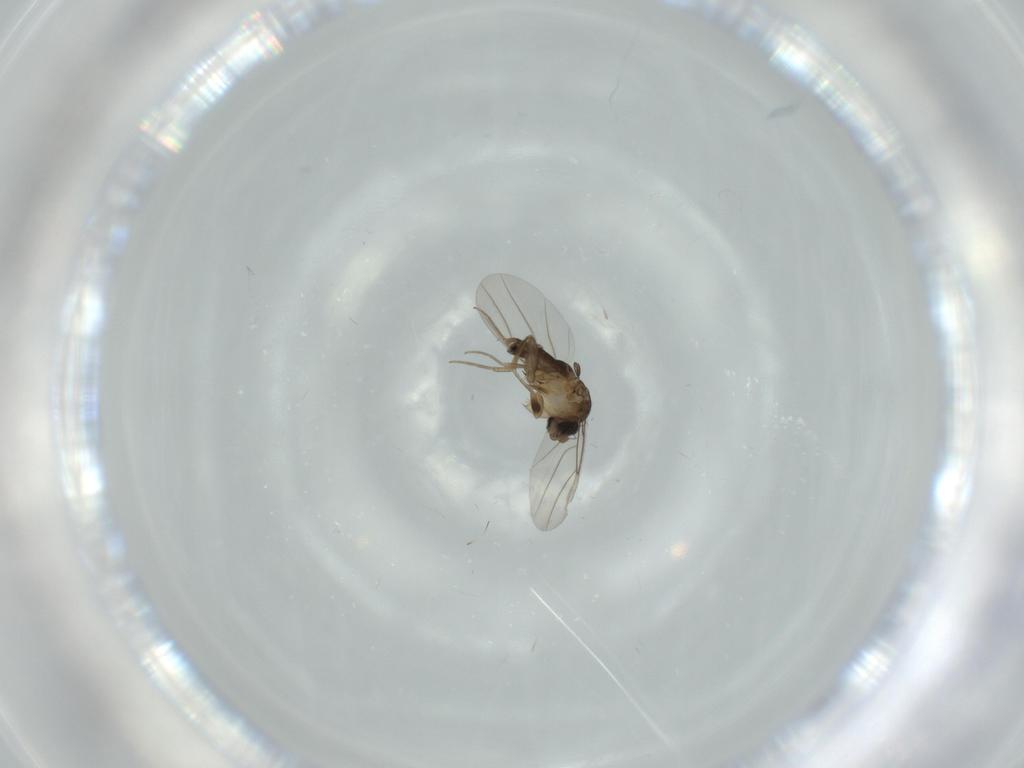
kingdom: Animalia
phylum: Arthropoda
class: Insecta
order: Diptera
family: Phoridae
